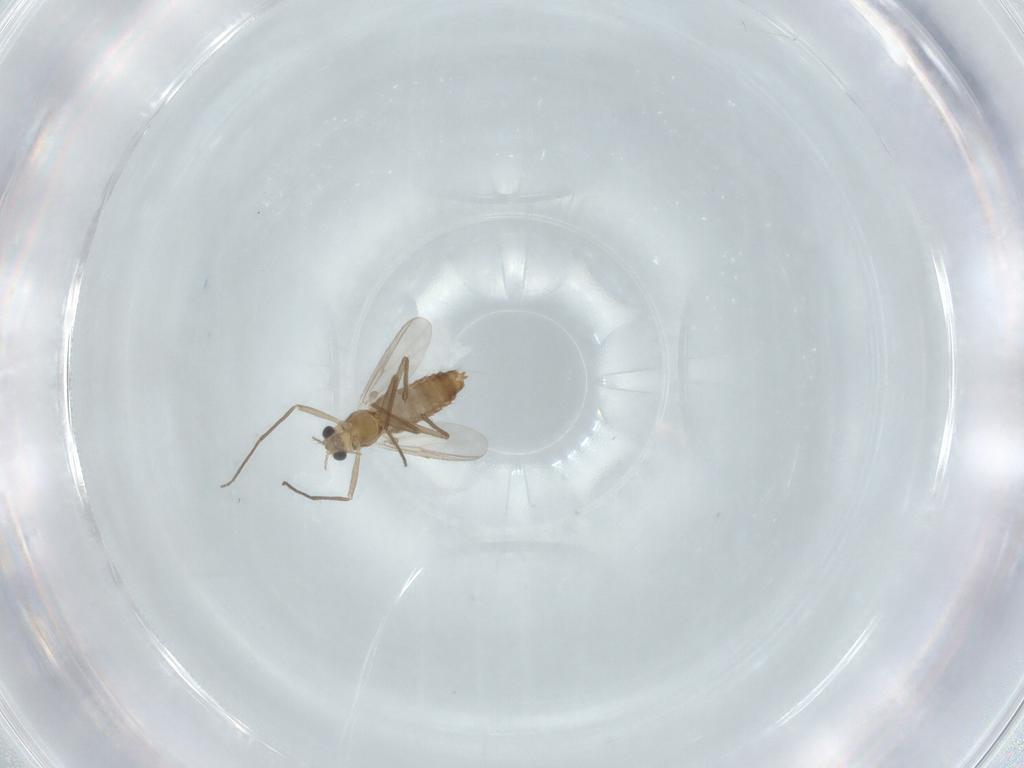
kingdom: Animalia
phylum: Arthropoda
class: Insecta
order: Diptera
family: Chironomidae
